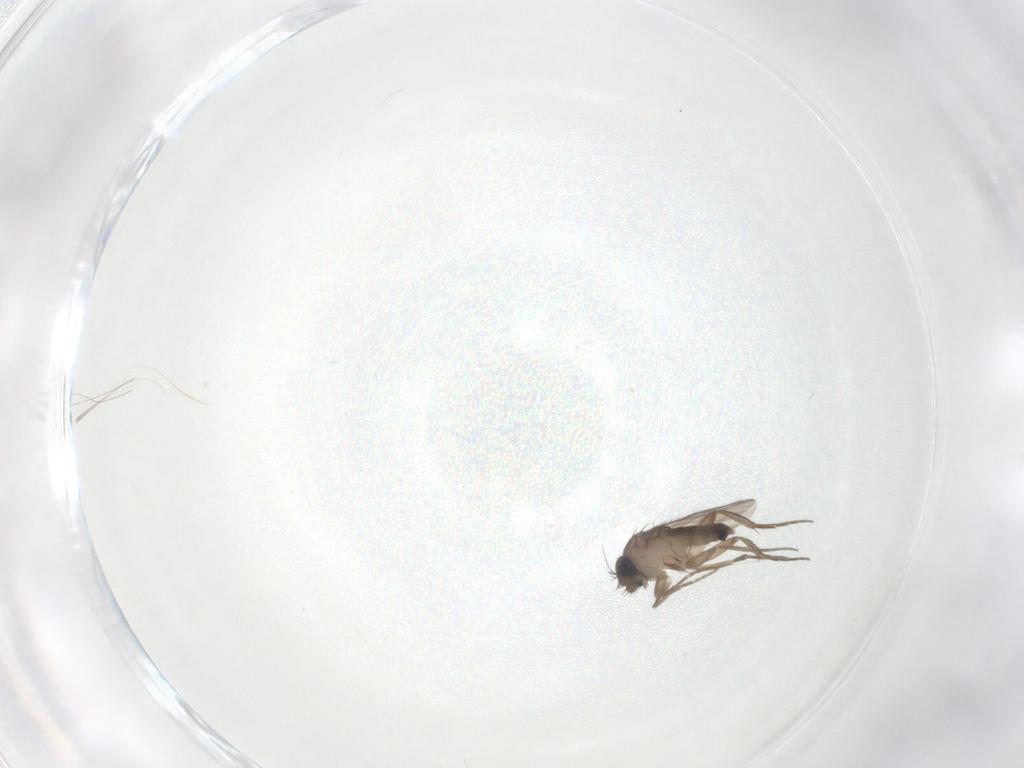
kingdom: Animalia
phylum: Arthropoda
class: Insecta
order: Diptera
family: Phoridae
